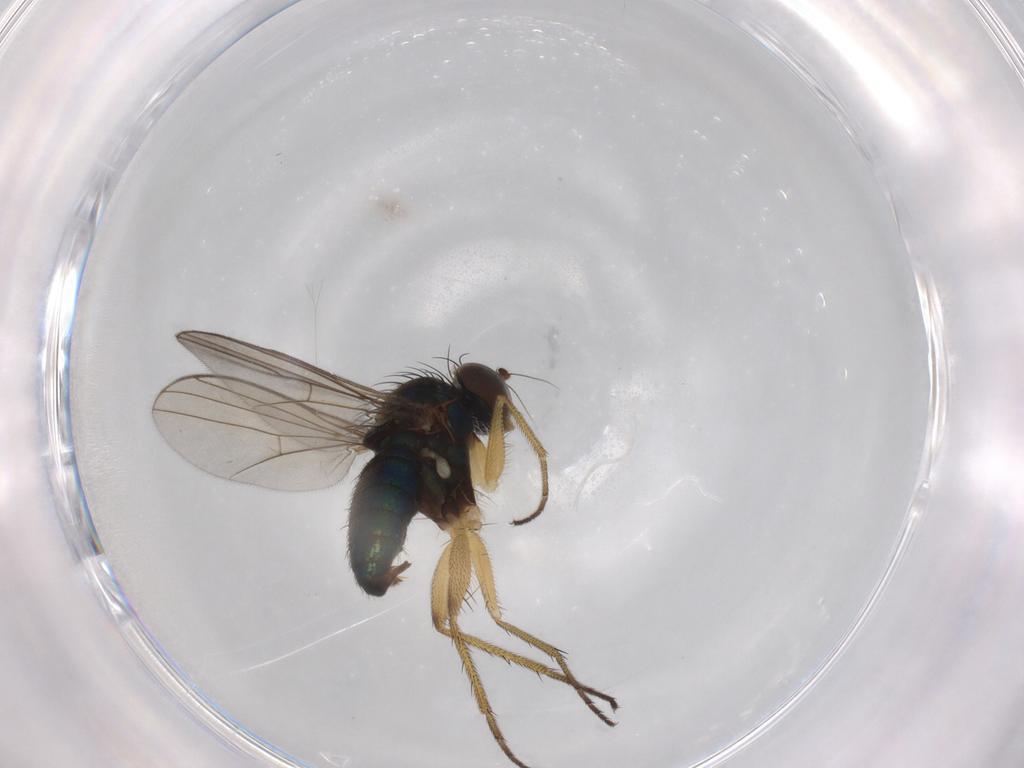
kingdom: Animalia
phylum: Arthropoda
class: Insecta
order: Diptera
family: Dolichopodidae
